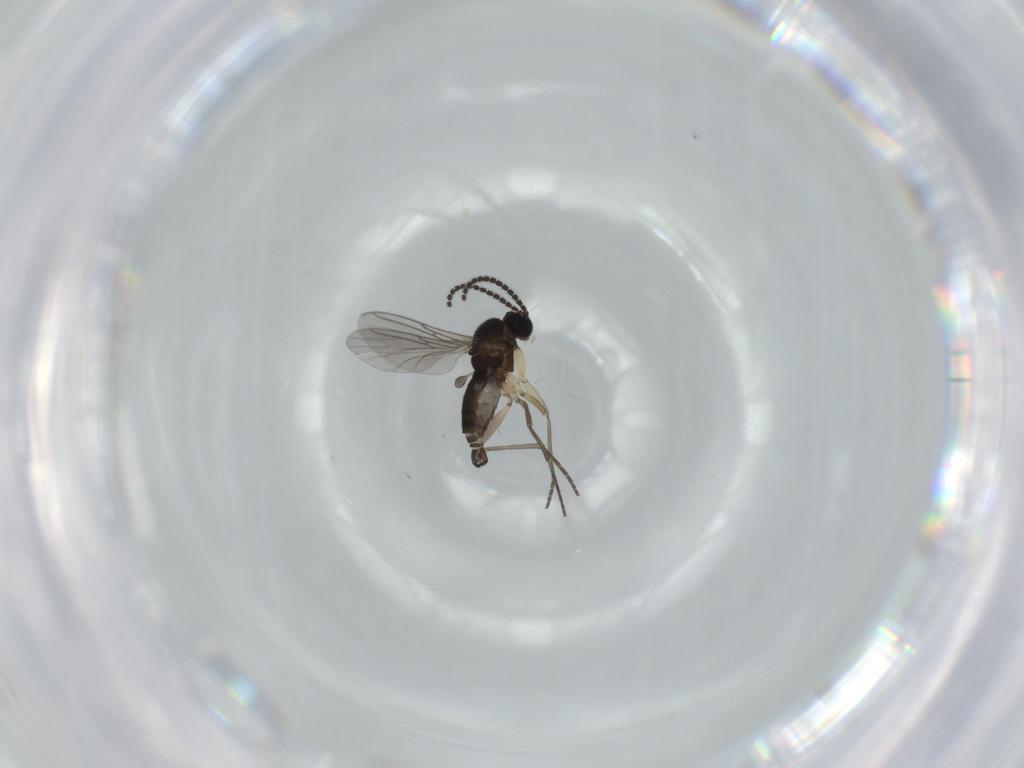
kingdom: Animalia
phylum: Arthropoda
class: Insecta
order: Diptera
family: Sciaridae
